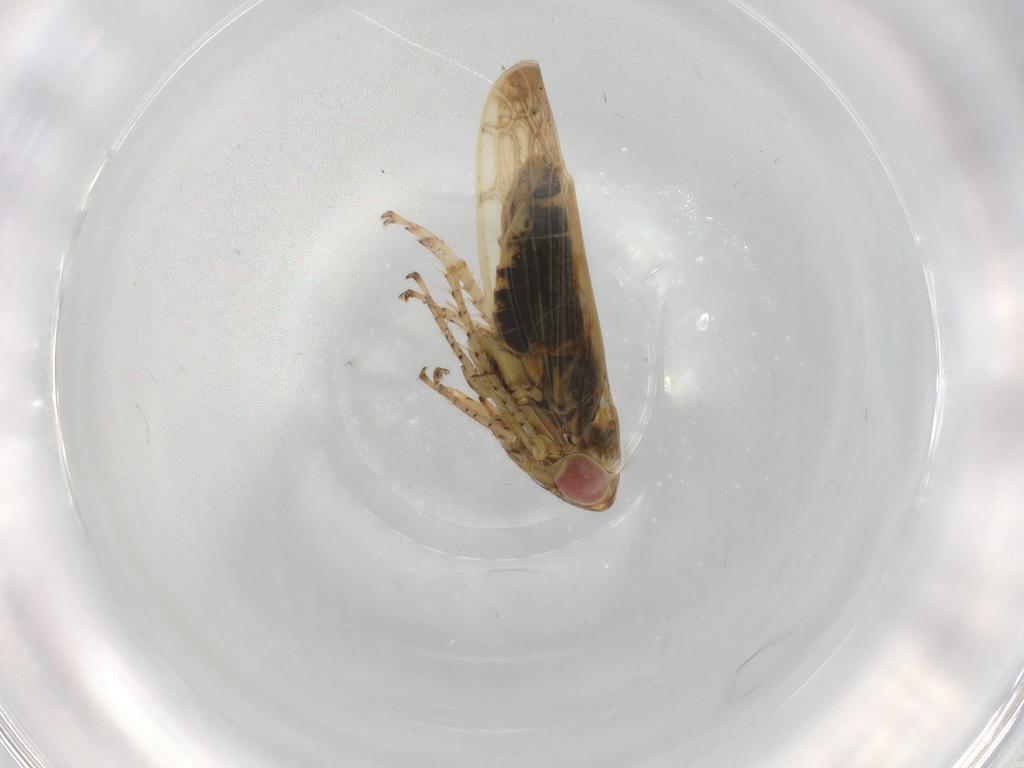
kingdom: Animalia
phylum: Arthropoda
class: Insecta
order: Hemiptera
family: Cicadellidae
